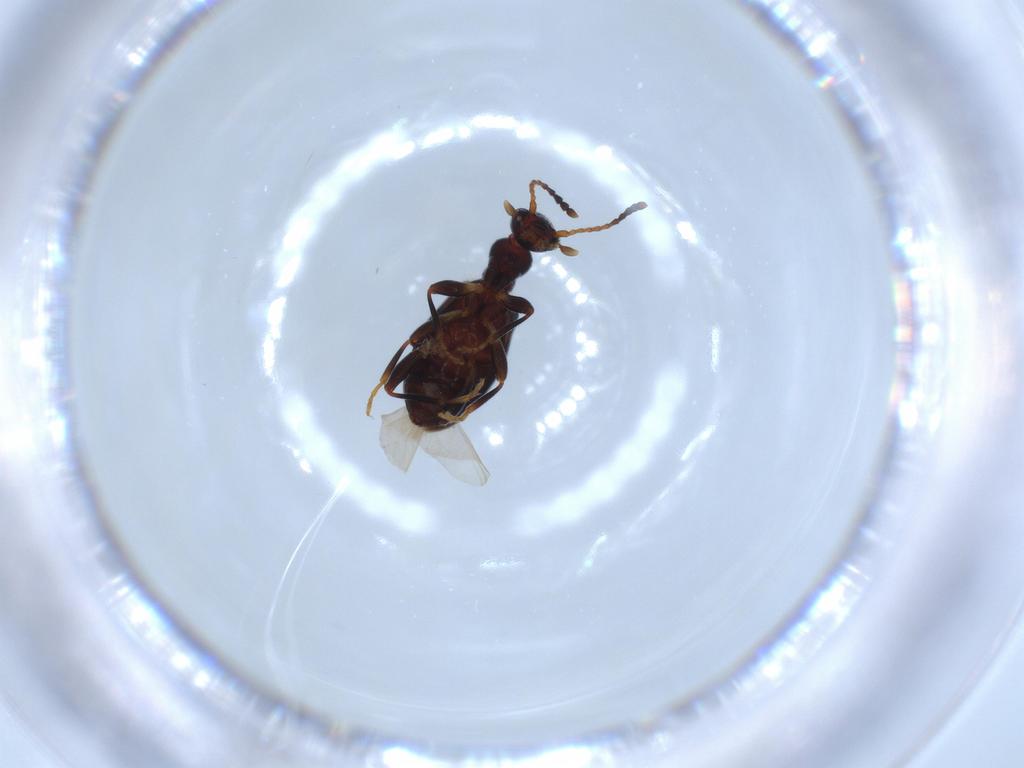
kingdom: Animalia
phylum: Arthropoda
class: Insecta
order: Coleoptera
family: Anthicidae
